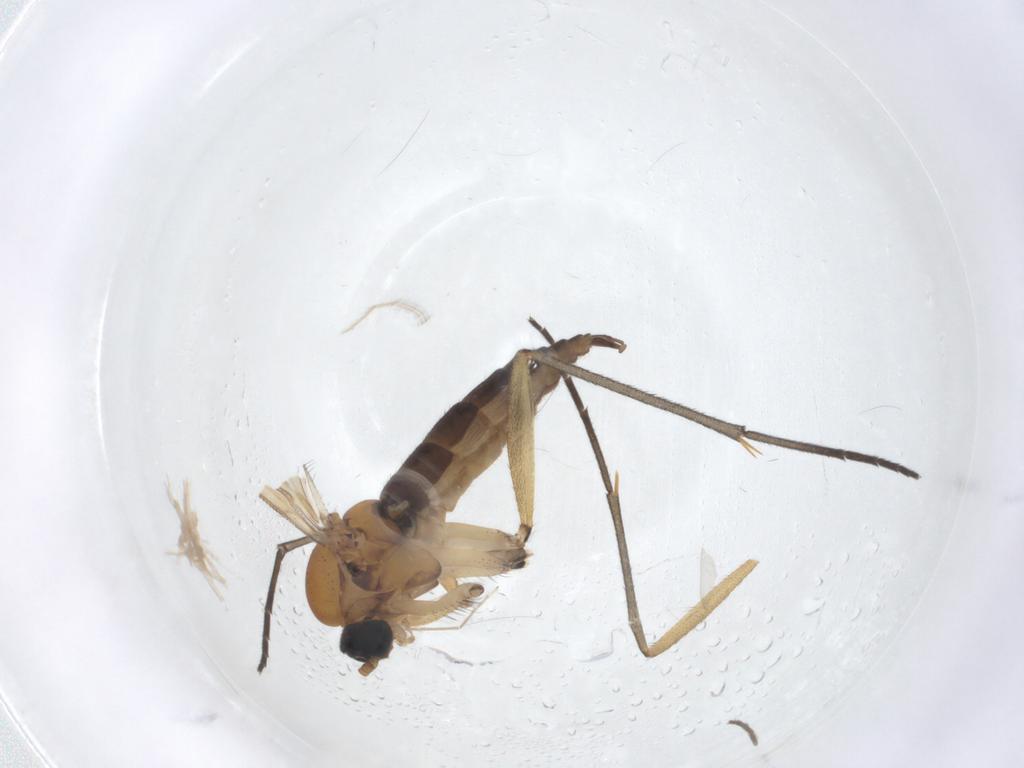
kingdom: Animalia
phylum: Arthropoda
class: Insecta
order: Diptera
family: Sciaridae
